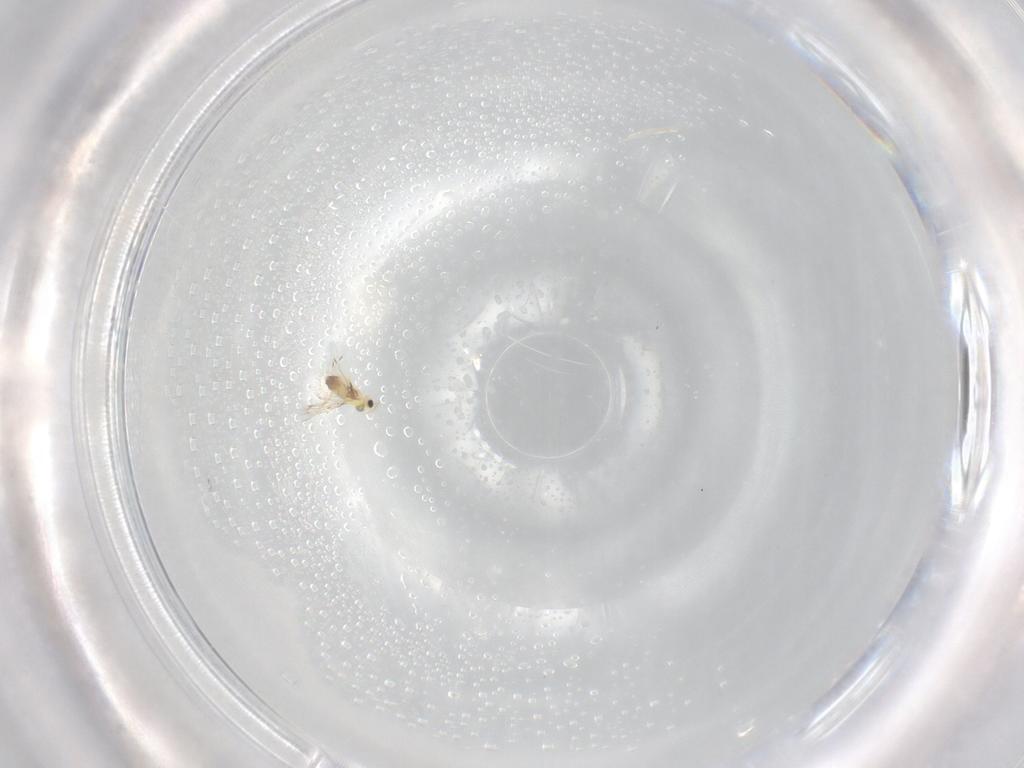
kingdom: Animalia
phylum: Arthropoda
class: Insecta
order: Hymenoptera
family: Trichogrammatidae
